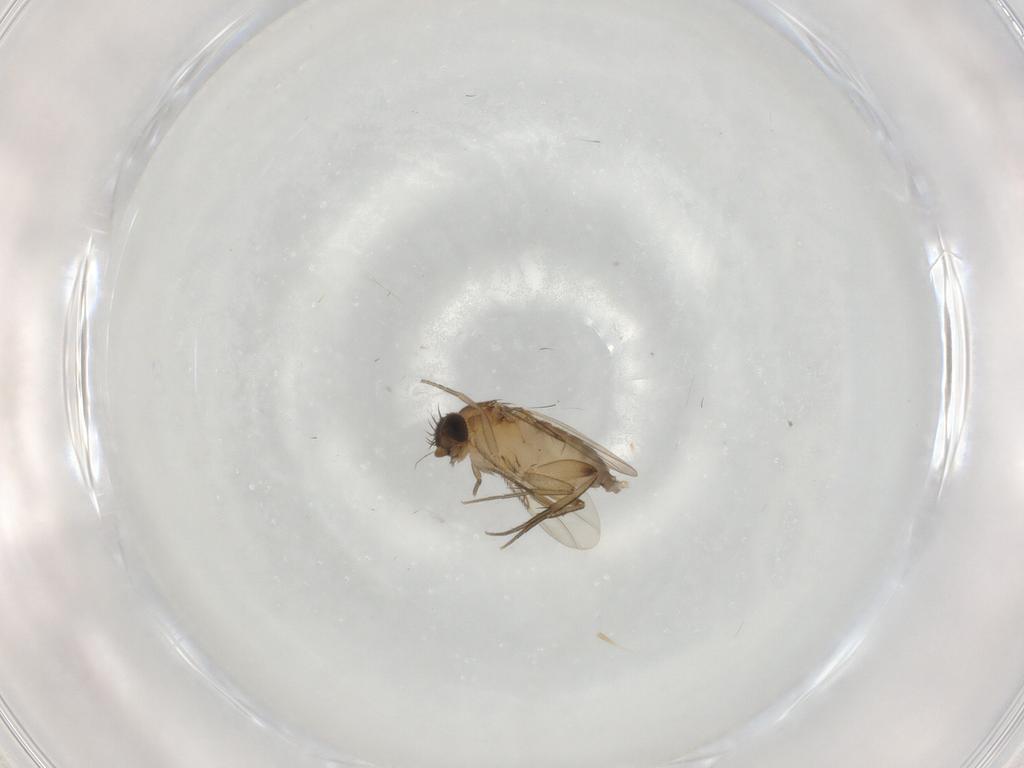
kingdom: Animalia
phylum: Arthropoda
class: Insecta
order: Diptera
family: Phoridae
